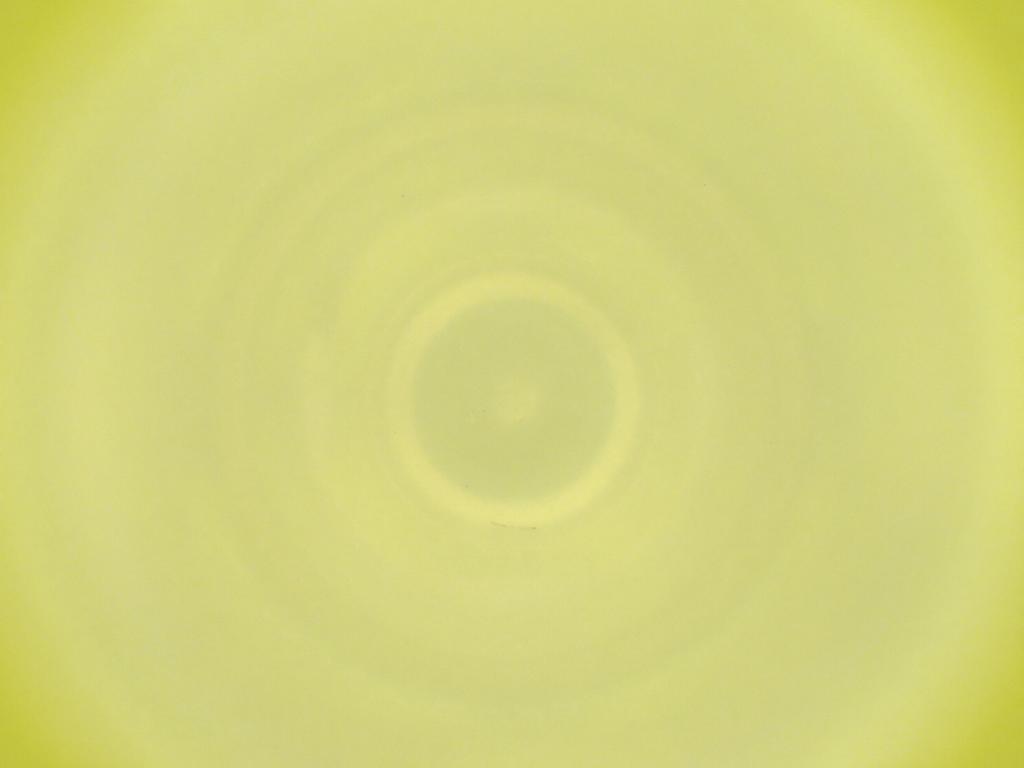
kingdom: Animalia
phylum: Arthropoda
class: Insecta
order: Diptera
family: Cecidomyiidae
